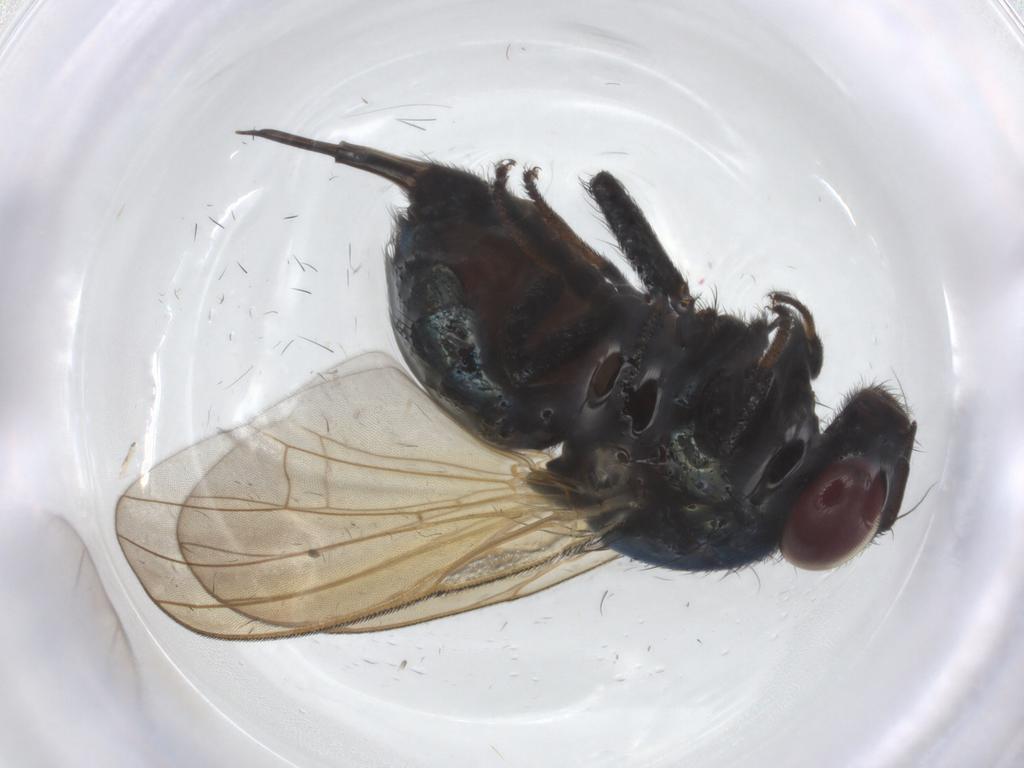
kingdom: Animalia
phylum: Arthropoda
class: Insecta
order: Diptera
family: Lonchaeidae
